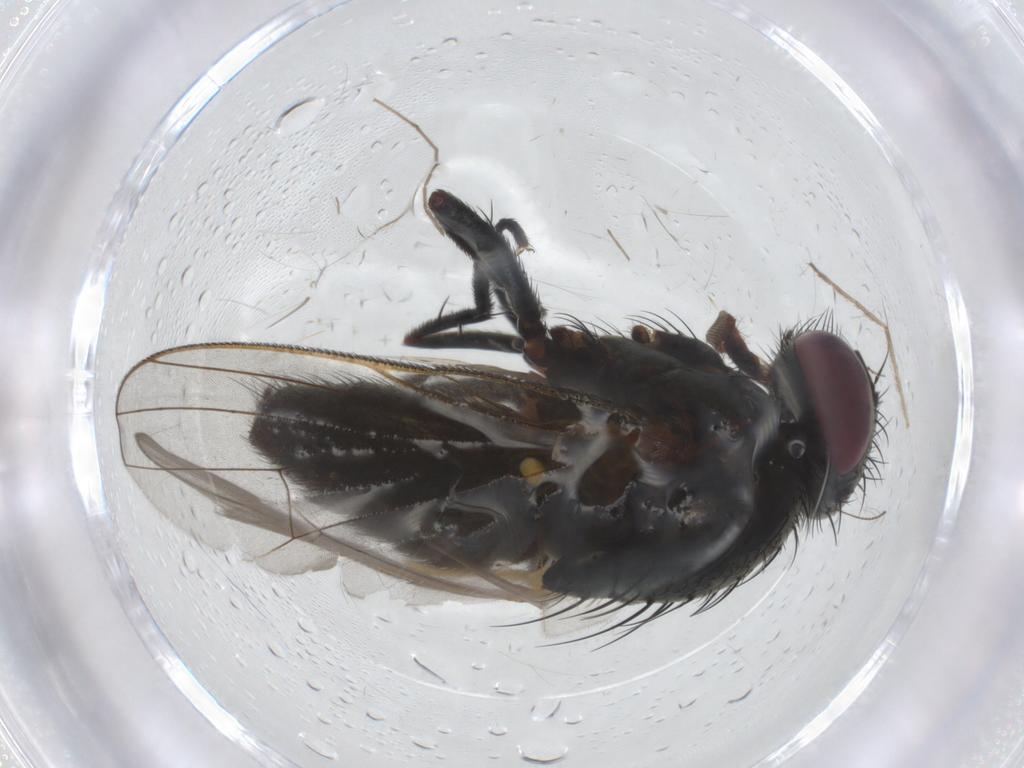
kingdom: Animalia
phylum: Arthropoda
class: Insecta
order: Diptera
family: Fannia
